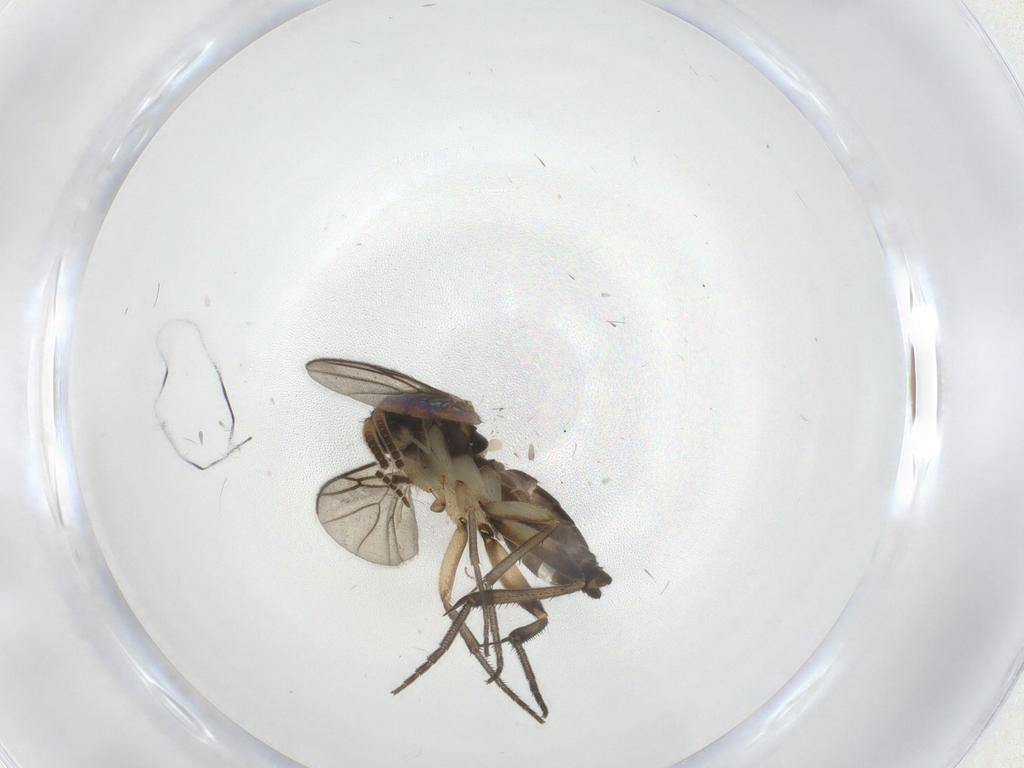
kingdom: Animalia
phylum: Arthropoda
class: Insecta
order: Diptera
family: Mycetophilidae
